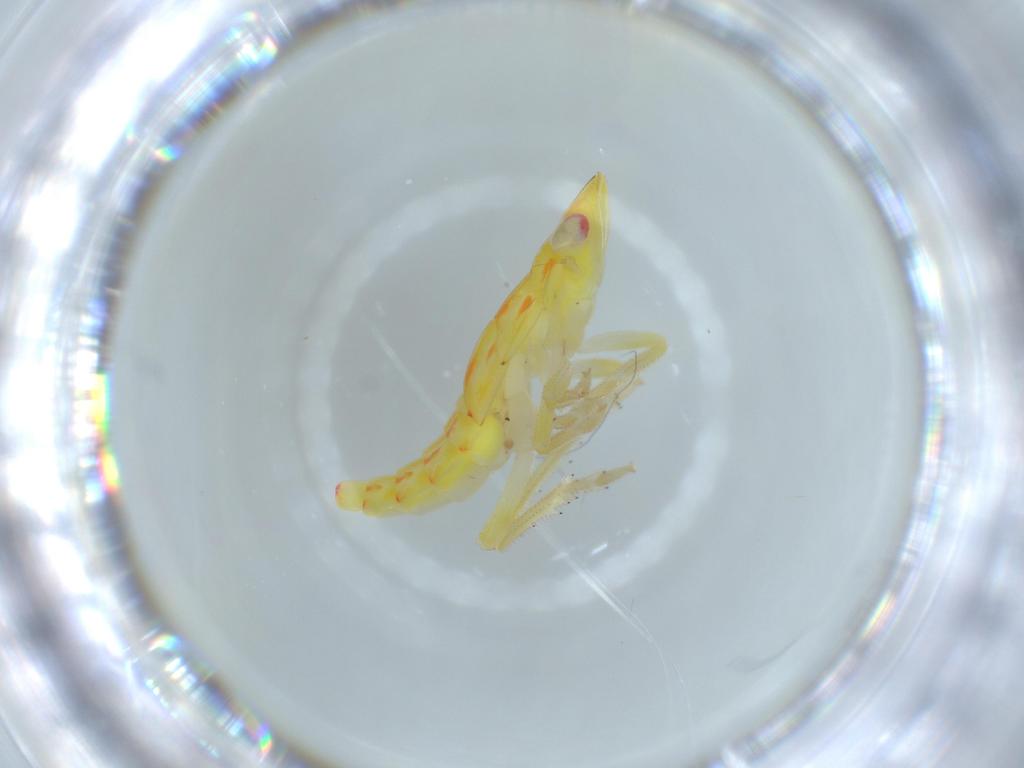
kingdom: Animalia
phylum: Arthropoda
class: Insecta
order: Hemiptera
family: Tropiduchidae
